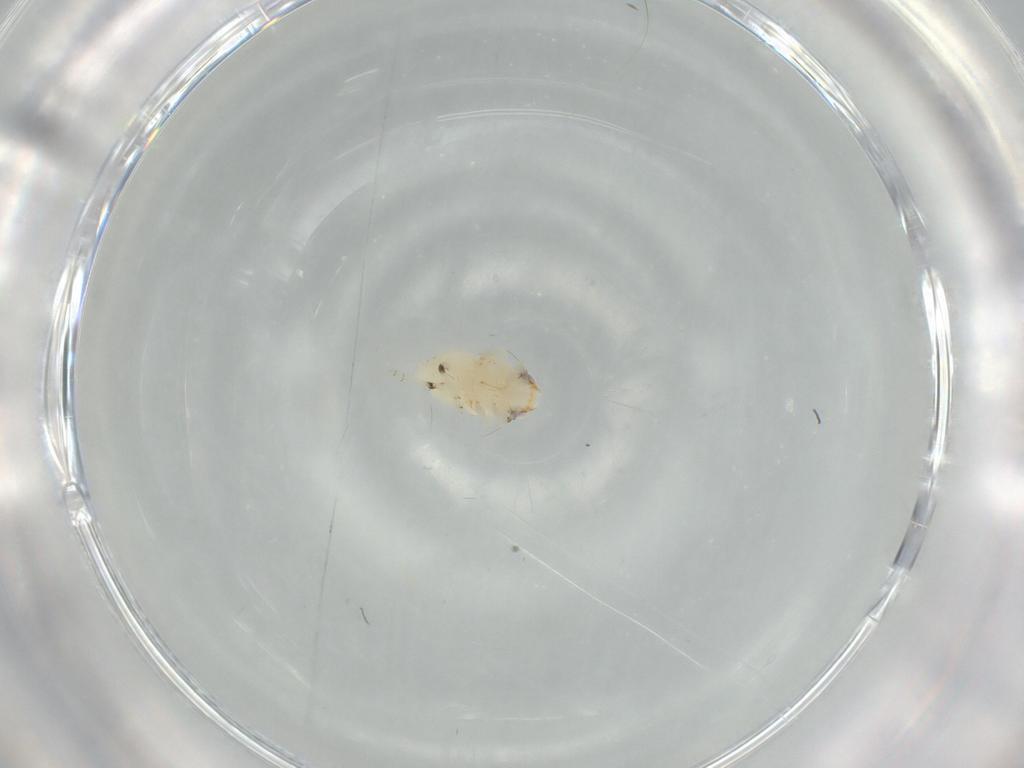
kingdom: Animalia
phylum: Arthropoda
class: Insecta
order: Hemiptera
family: Nogodinidae
